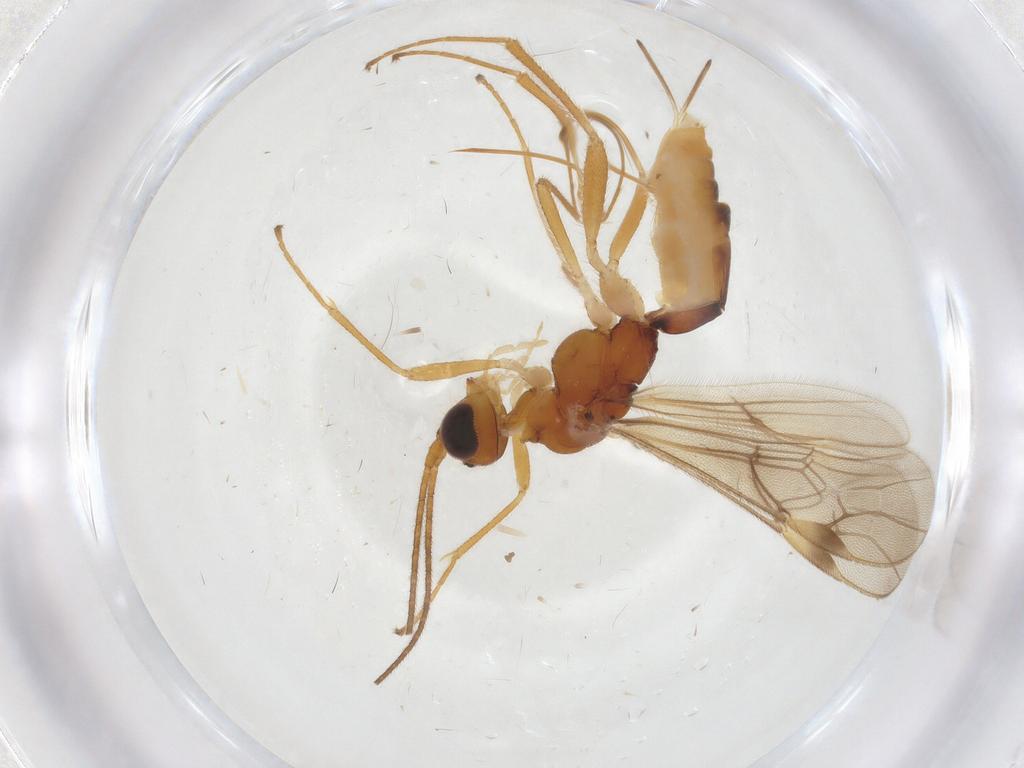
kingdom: Animalia
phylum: Arthropoda
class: Insecta
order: Hymenoptera
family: Braconidae
